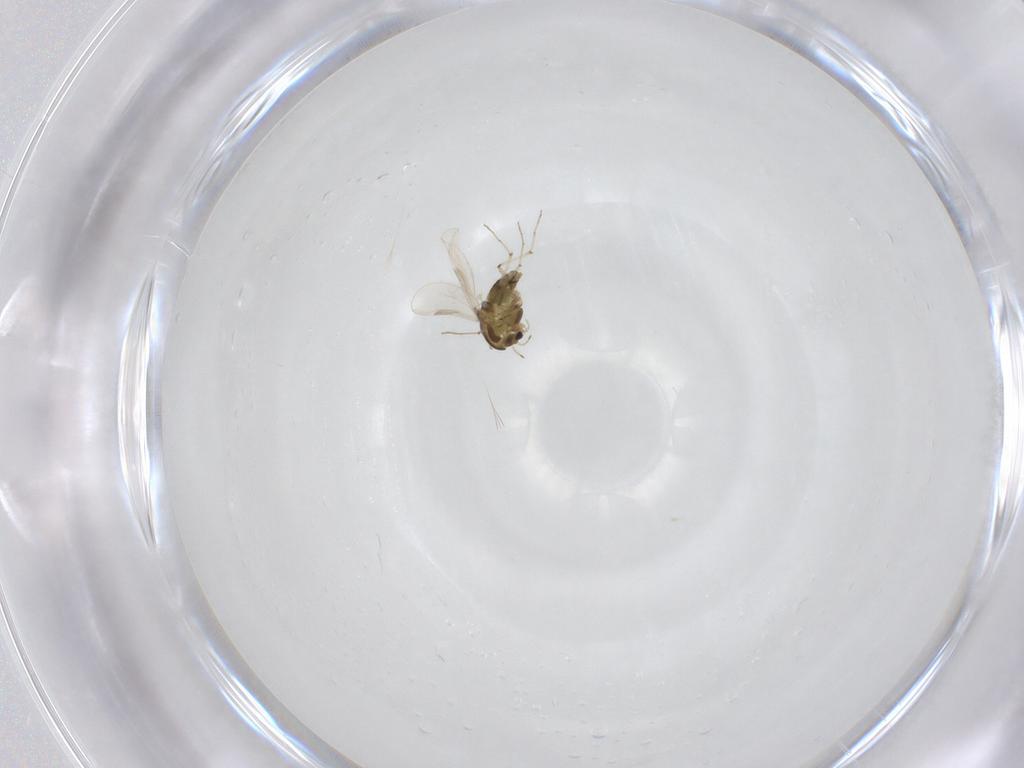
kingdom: Animalia
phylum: Arthropoda
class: Insecta
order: Diptera
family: Chironomidae
